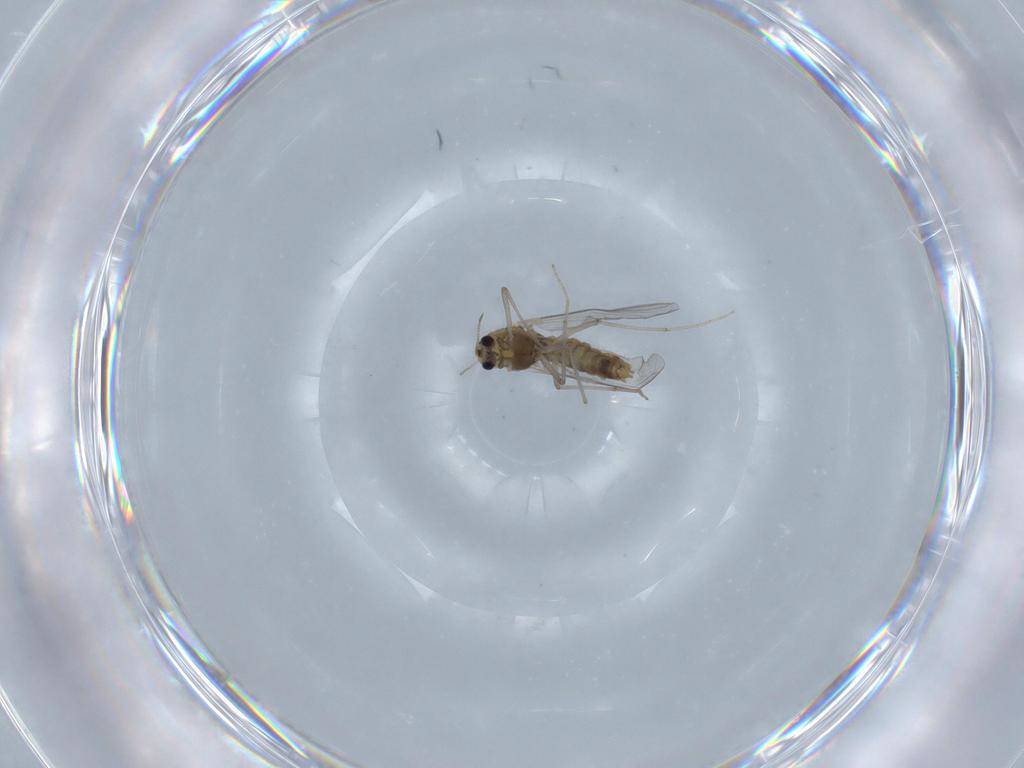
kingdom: Animalia
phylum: Arthropoda
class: Insecta
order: Diptera
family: Chironomidae
